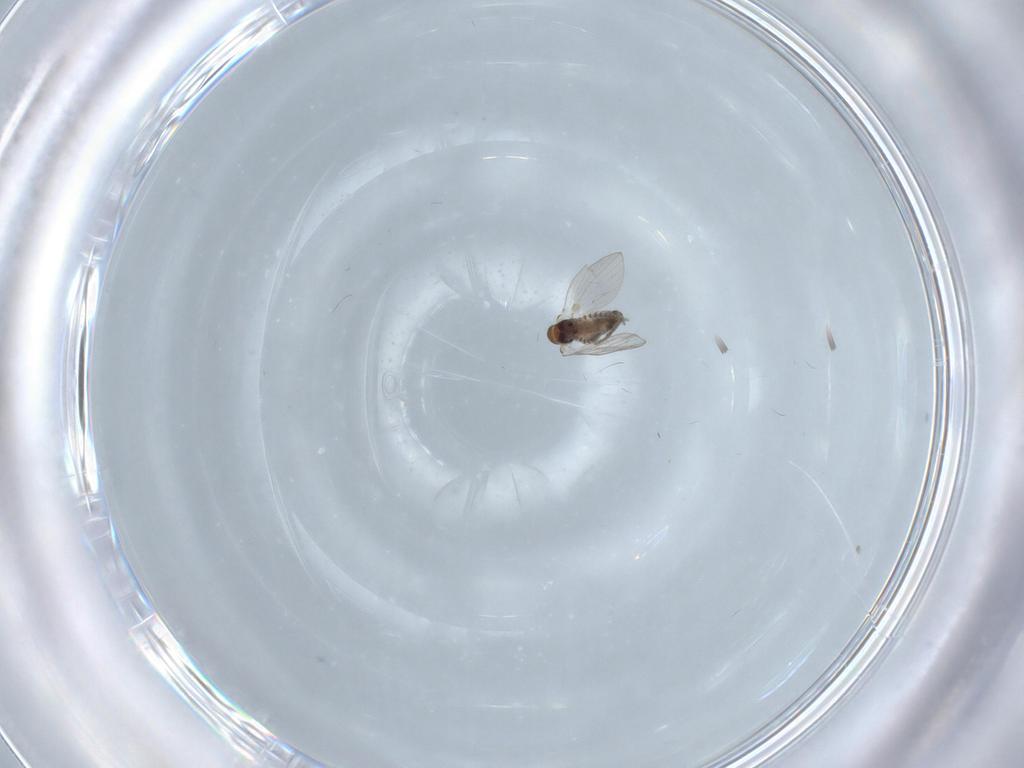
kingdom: Animalia
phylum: Arthropoda
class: Insecta
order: Diptera
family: Psychodidae
